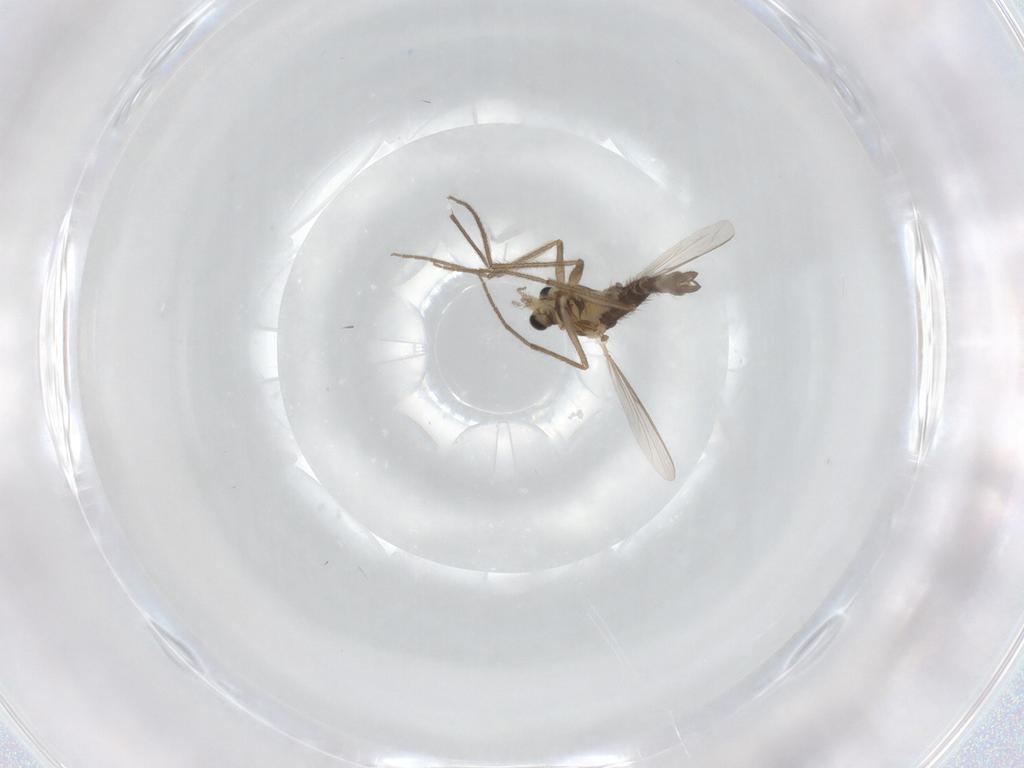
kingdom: Animalia
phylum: Arthropoda
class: Insecta
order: Diptera
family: Chironomidae
